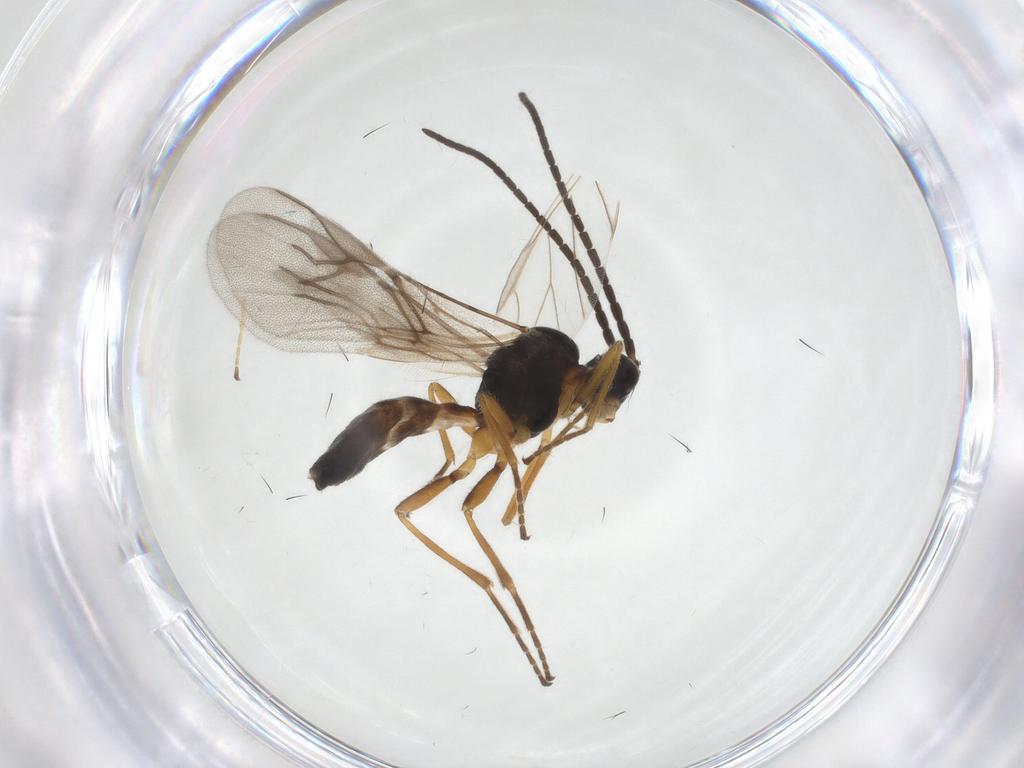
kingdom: Animalia
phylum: Arthropoda
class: Insecta
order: Hymenoptera
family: Braconidae
